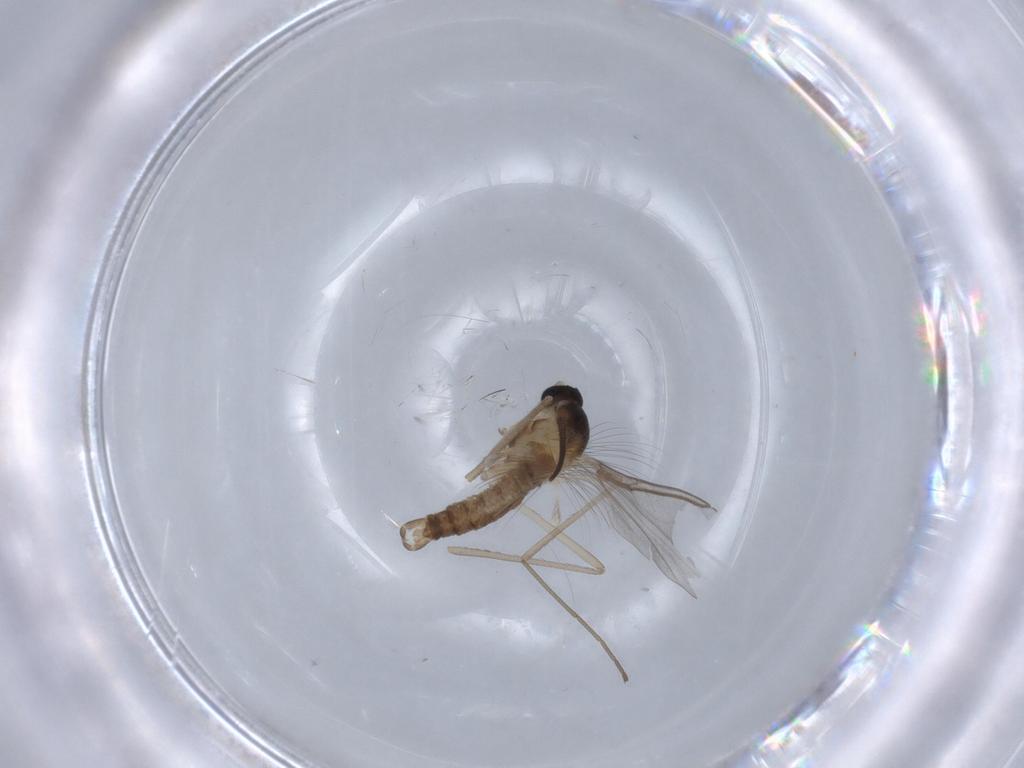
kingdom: Animalia
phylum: Arthropoda
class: Insecta
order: Diptera
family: Chironomidae
